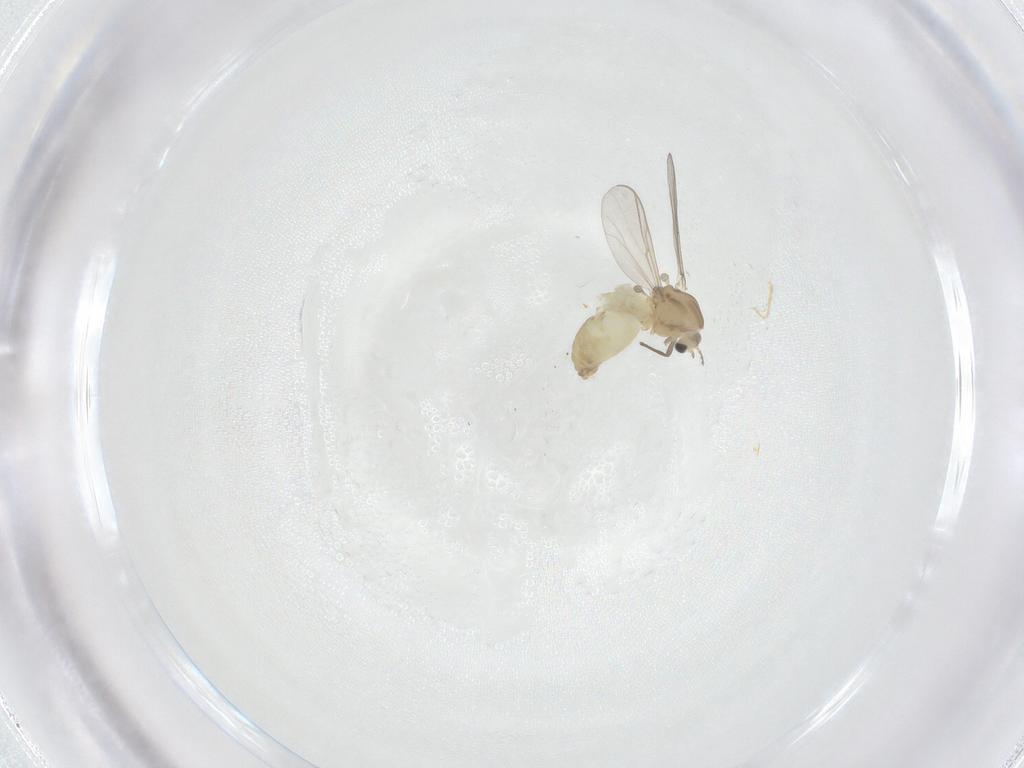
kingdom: Animalia
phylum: Arthropoda
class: Insecta
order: Diptera
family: Chironomidae
